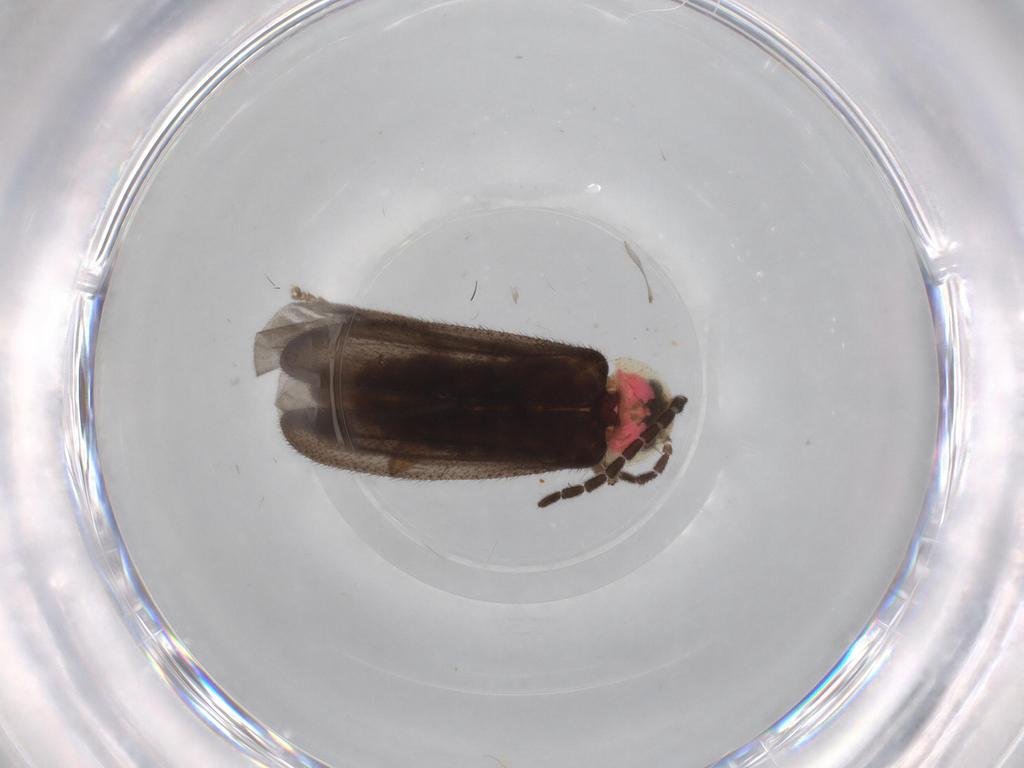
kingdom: Animalia
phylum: Arthropoda
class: Insecta
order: Coleoptera
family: Lampyridae
